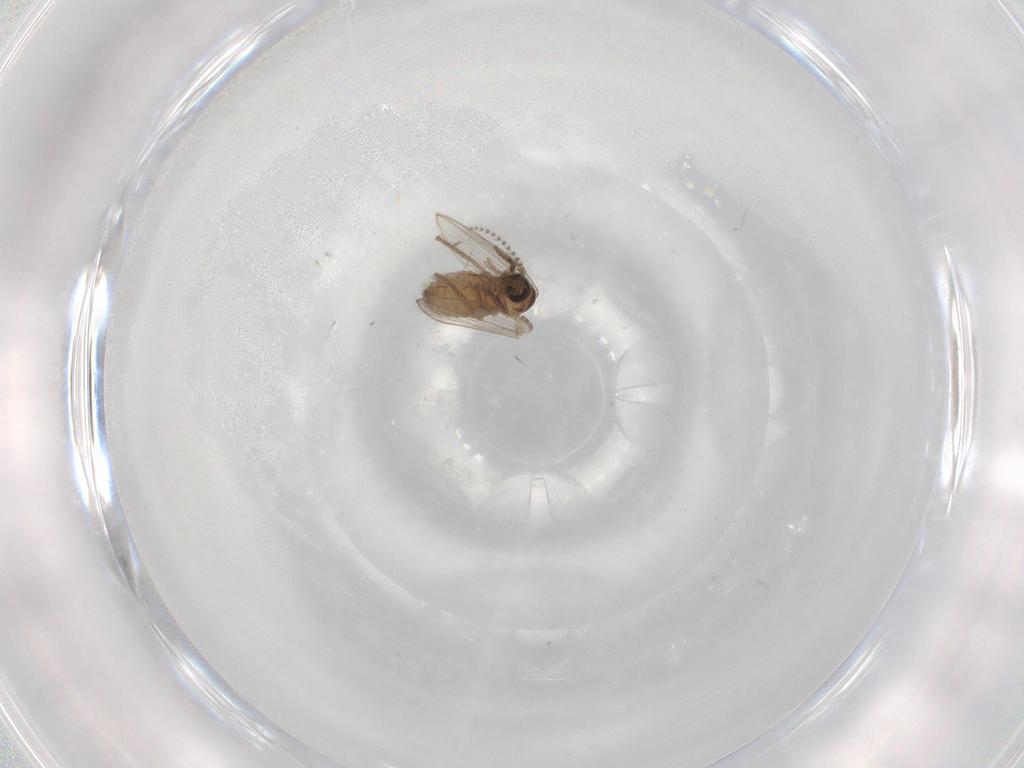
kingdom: Animalia
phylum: Arthropoda
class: Insecta
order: Diptera
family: Psychodidae
